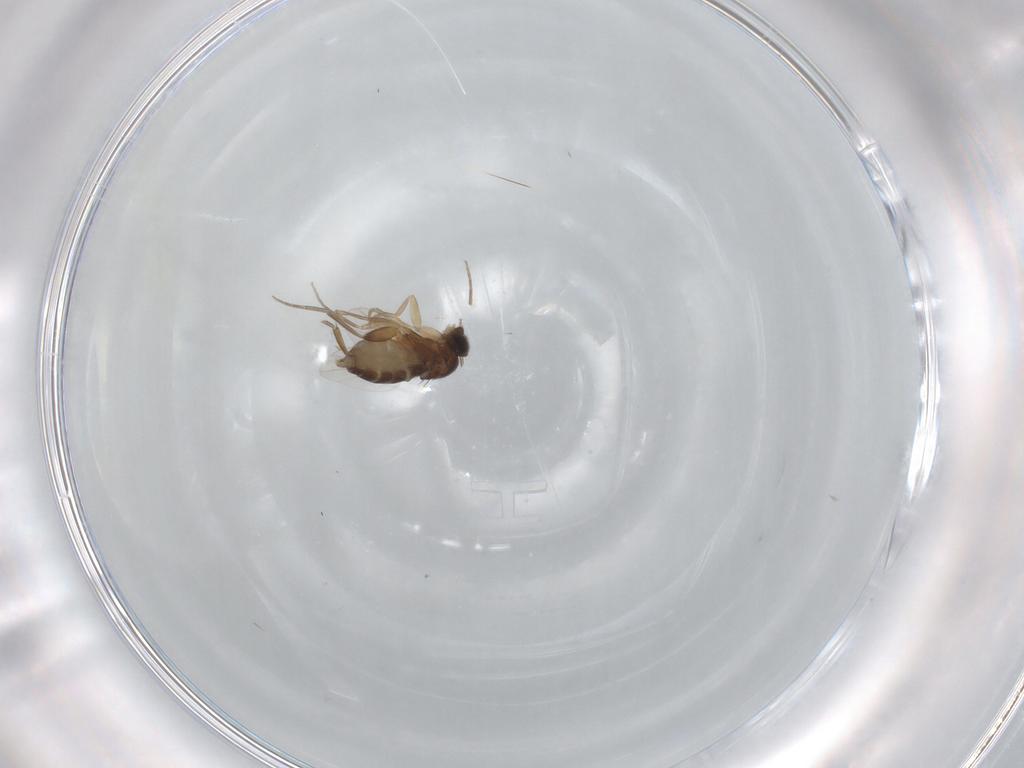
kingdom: Animalia
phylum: Arthropoda
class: Insecta
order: Diptera
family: Phoridae
